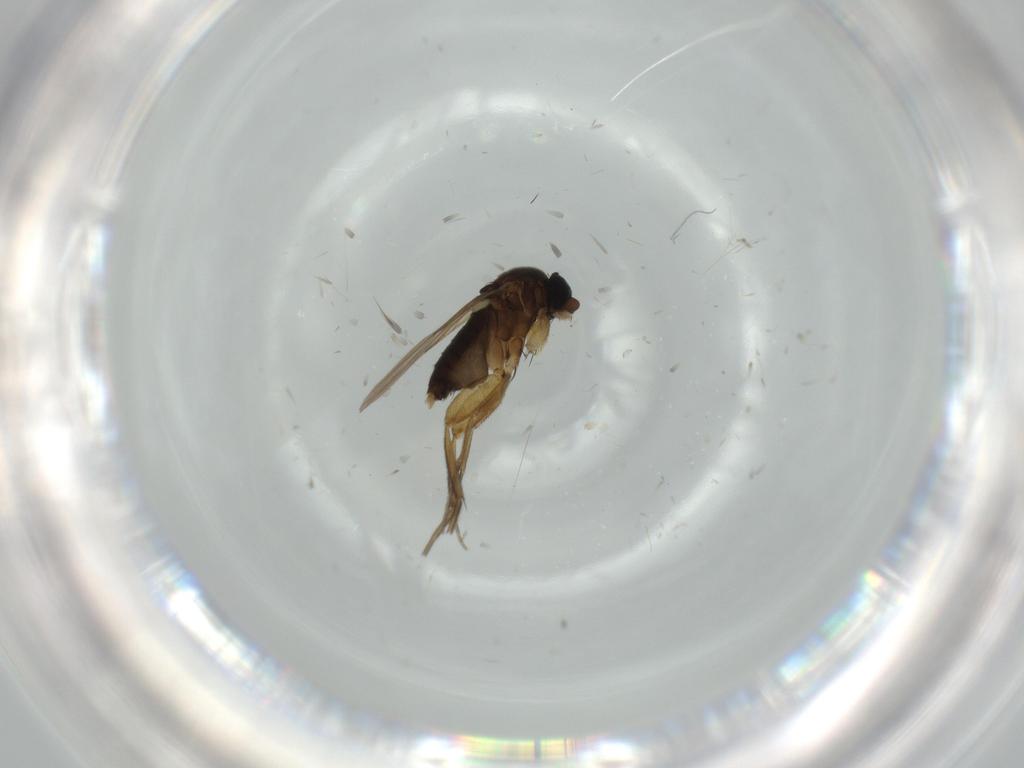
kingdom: Animalia
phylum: Arthropoda
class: Insecta
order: Diptera
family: Phoridae
